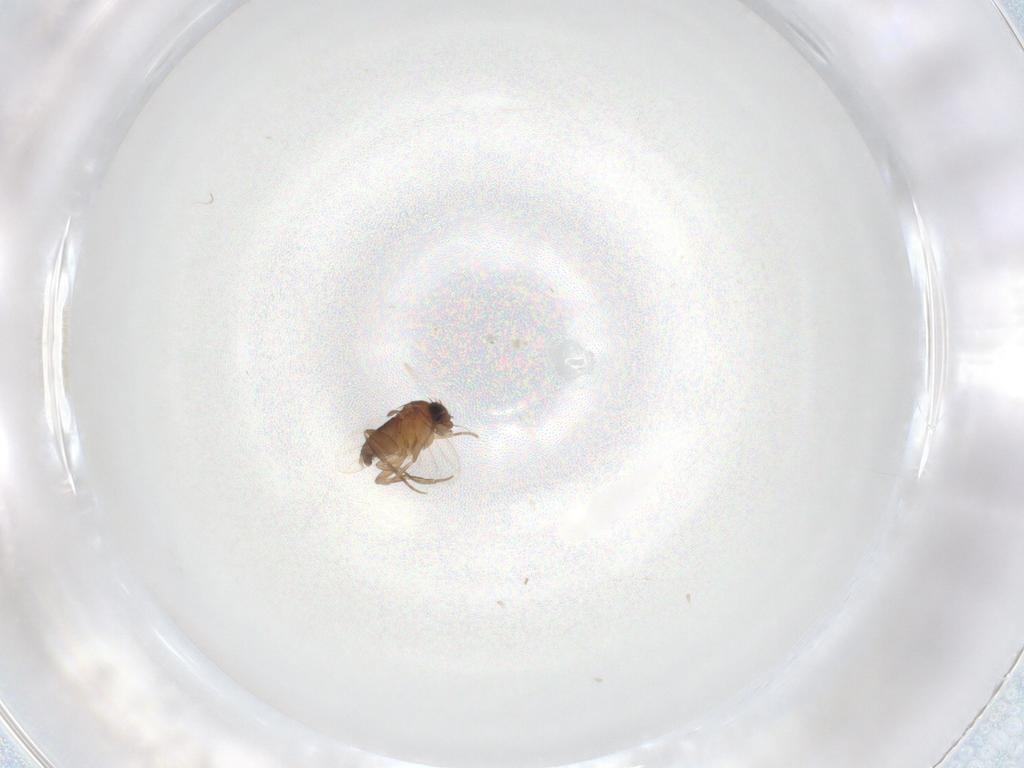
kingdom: Animalia
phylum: Arthropoda
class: Insecta
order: Diptera
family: Phoridae
